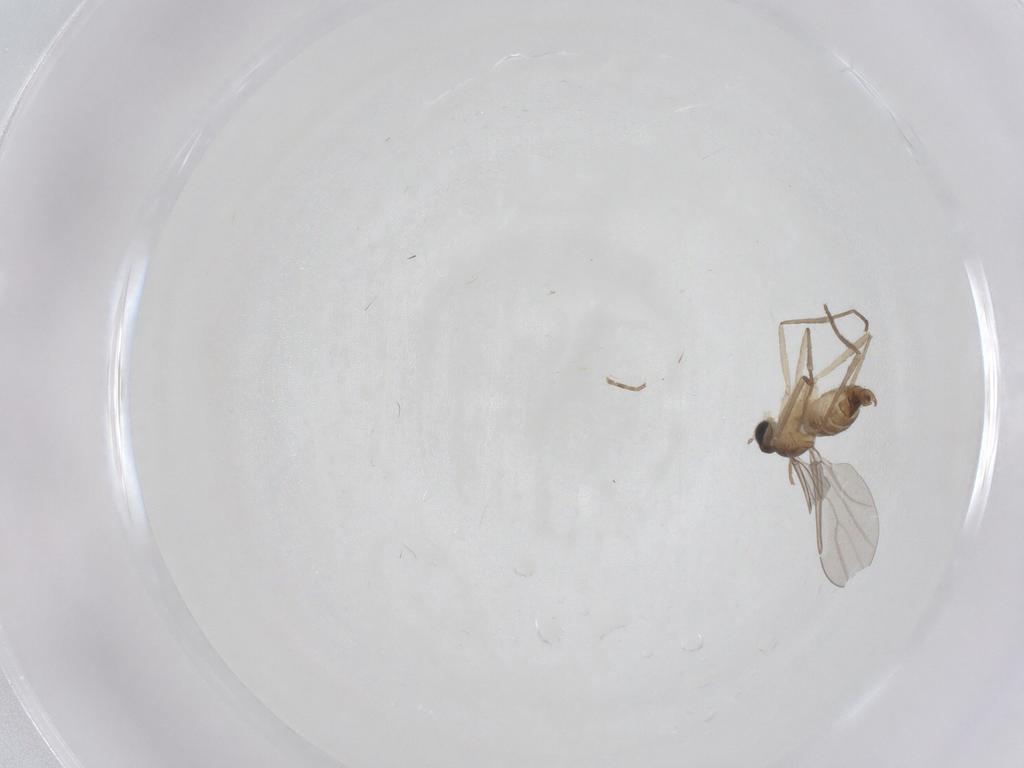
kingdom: Animalia
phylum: Arthropoda
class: Insecta
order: Diptera
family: Cecidomyiidae
